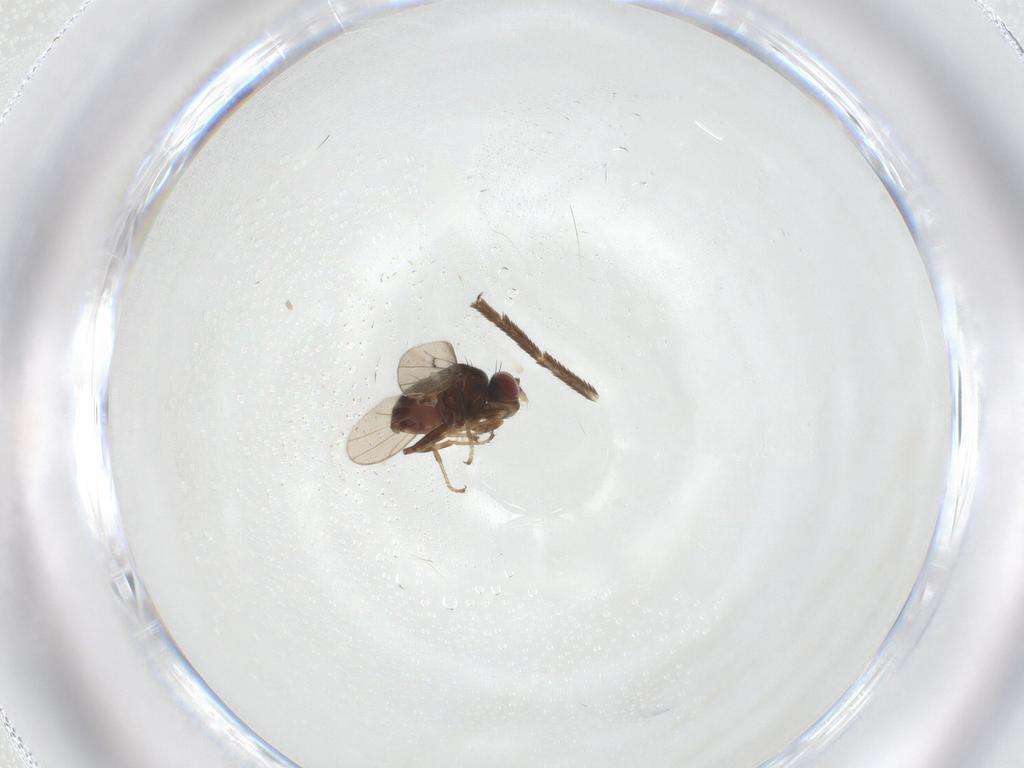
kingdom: Animalia
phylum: Arthropoda
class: Insecta
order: Diptera
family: Ephydridae
